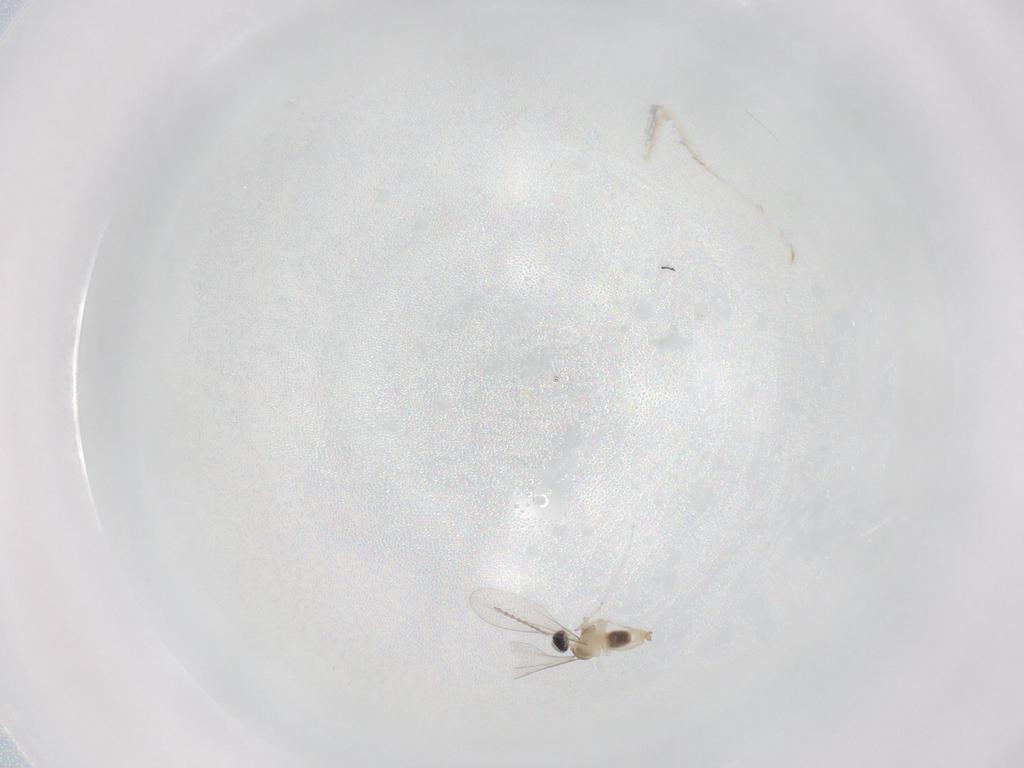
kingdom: Animalia
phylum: Arthropoda
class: Insecta
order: Diptera
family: Cecidomyiidae
